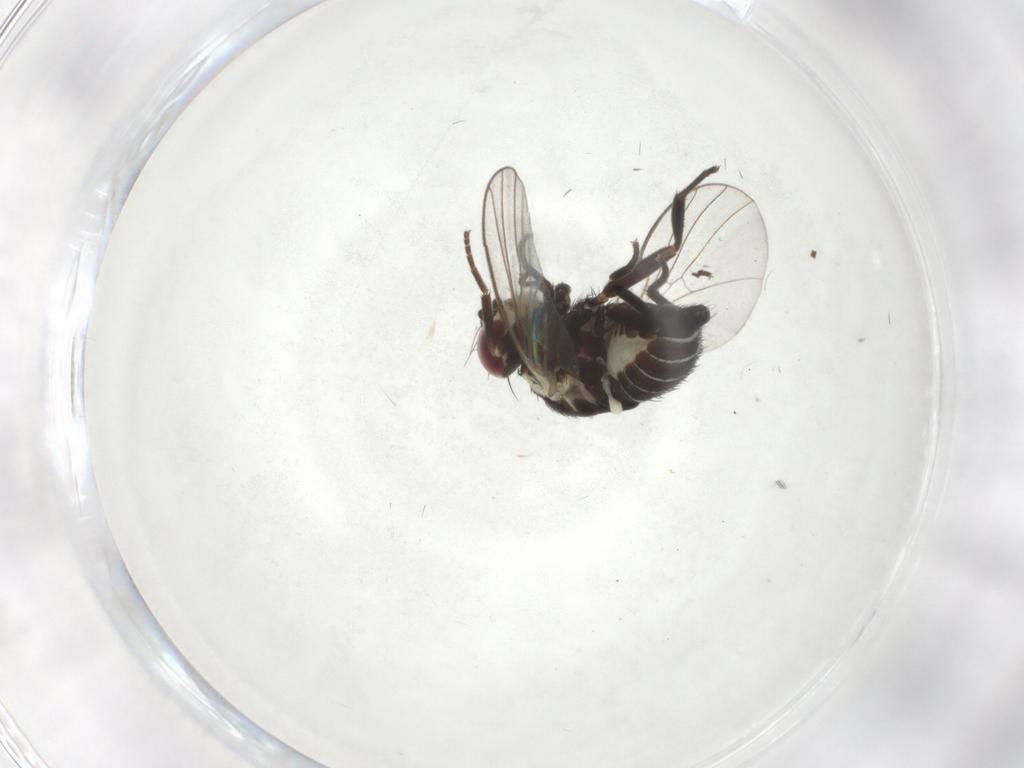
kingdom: Animalia
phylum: Arthropoda
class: Insecta
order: Diptera
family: Agromyzidae
